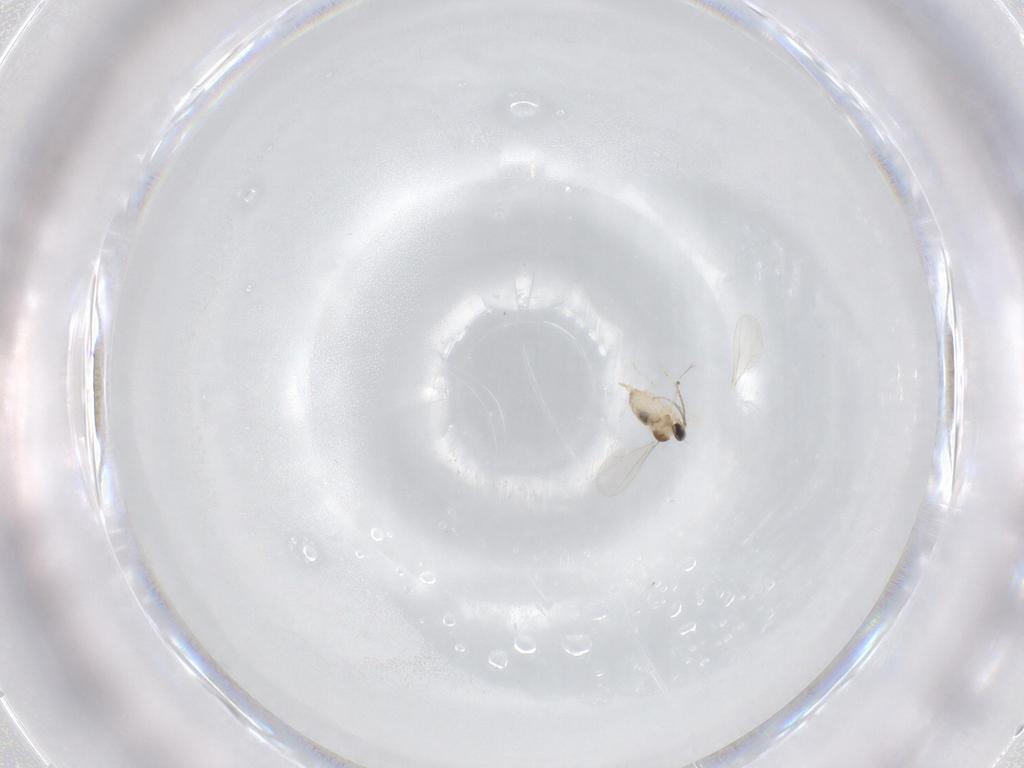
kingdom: Animalia
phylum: Arthropoda
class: Insecta
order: Diptera
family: Cecidomyiidae
